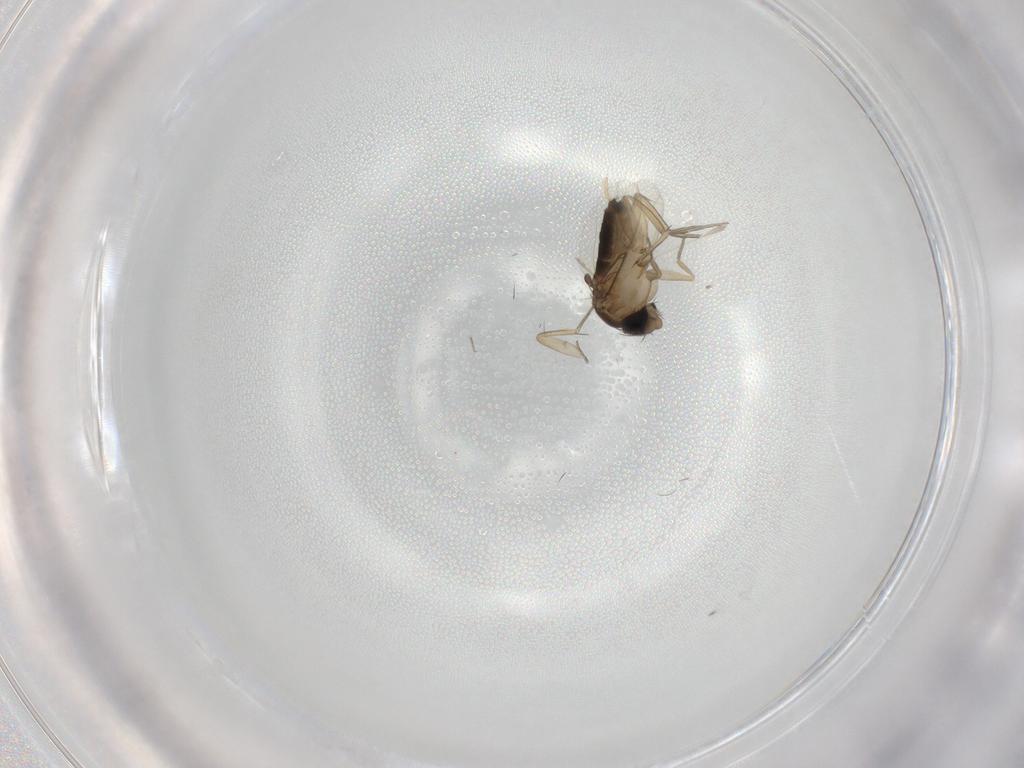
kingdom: Animalia
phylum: Arthropoda
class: Insecta
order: Diptera
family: Phoridae
